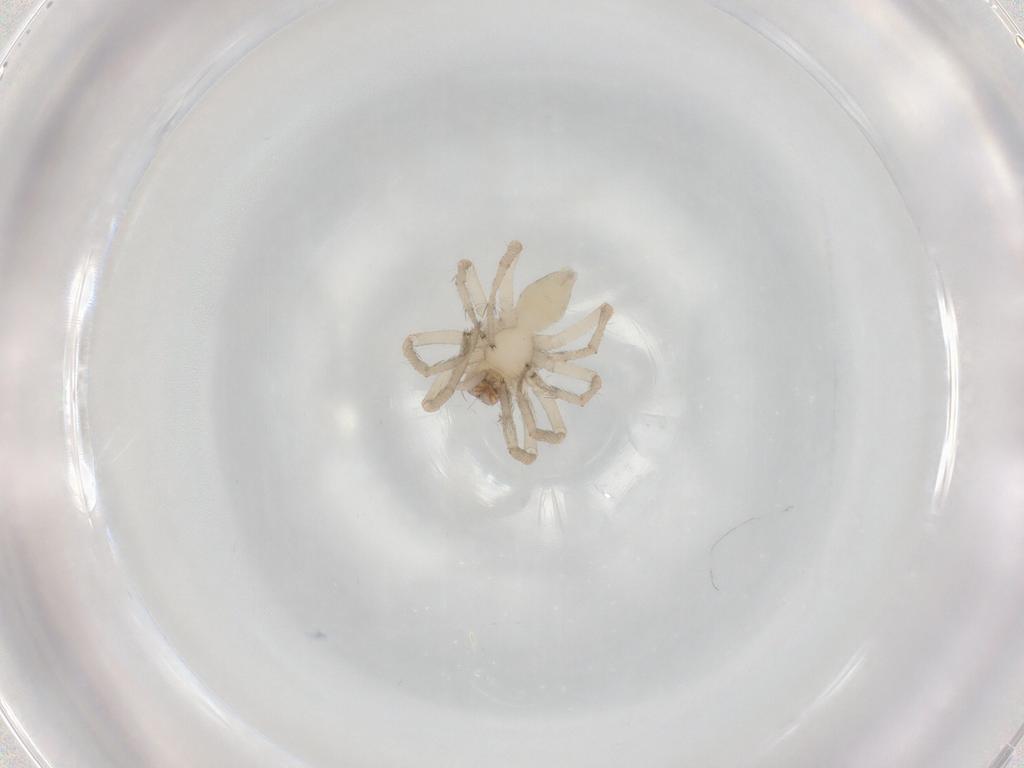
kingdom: Animalia
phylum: Arthropoda
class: Arachnida
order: Araneae
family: Anyphaenidae
